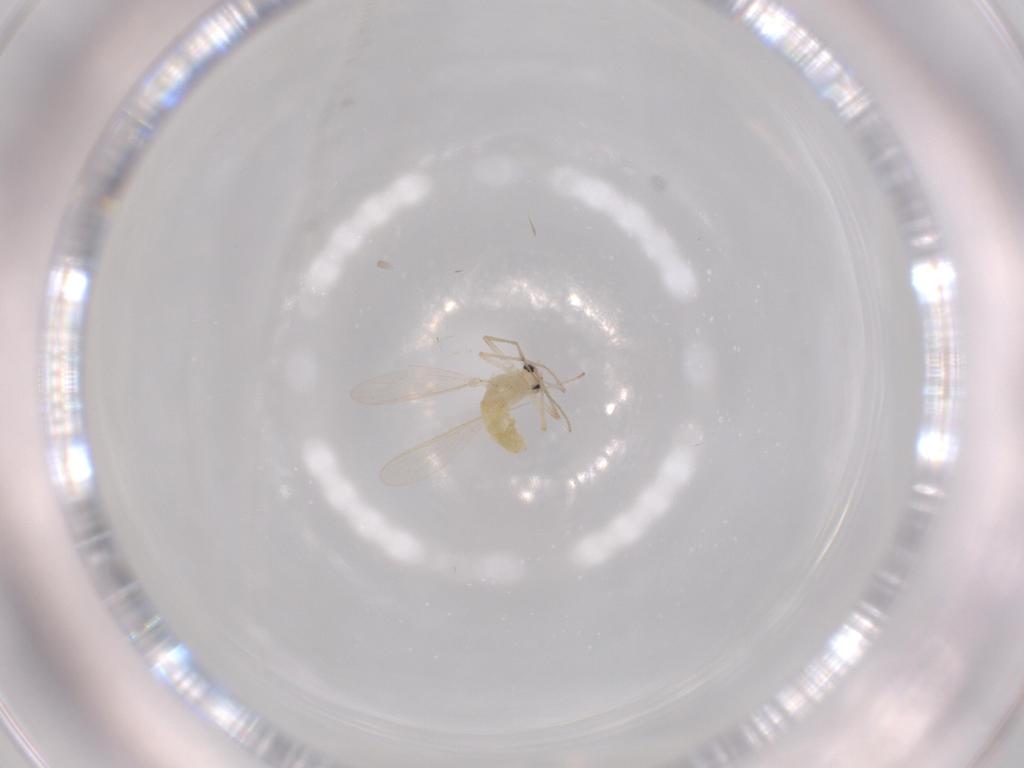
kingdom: Animalia
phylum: Arthropoda
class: Insecta
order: Diptera
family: Chironomidae
